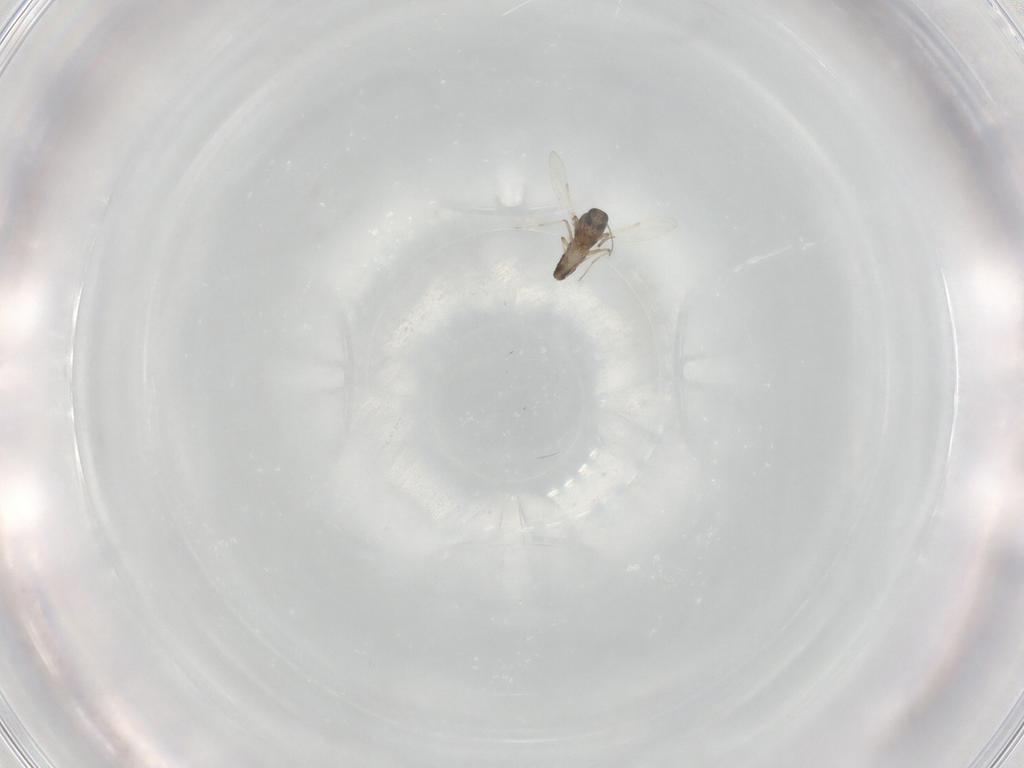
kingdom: Animalia
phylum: Arthropoda
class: Insecta
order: Diptera
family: Ceratopogonidae
